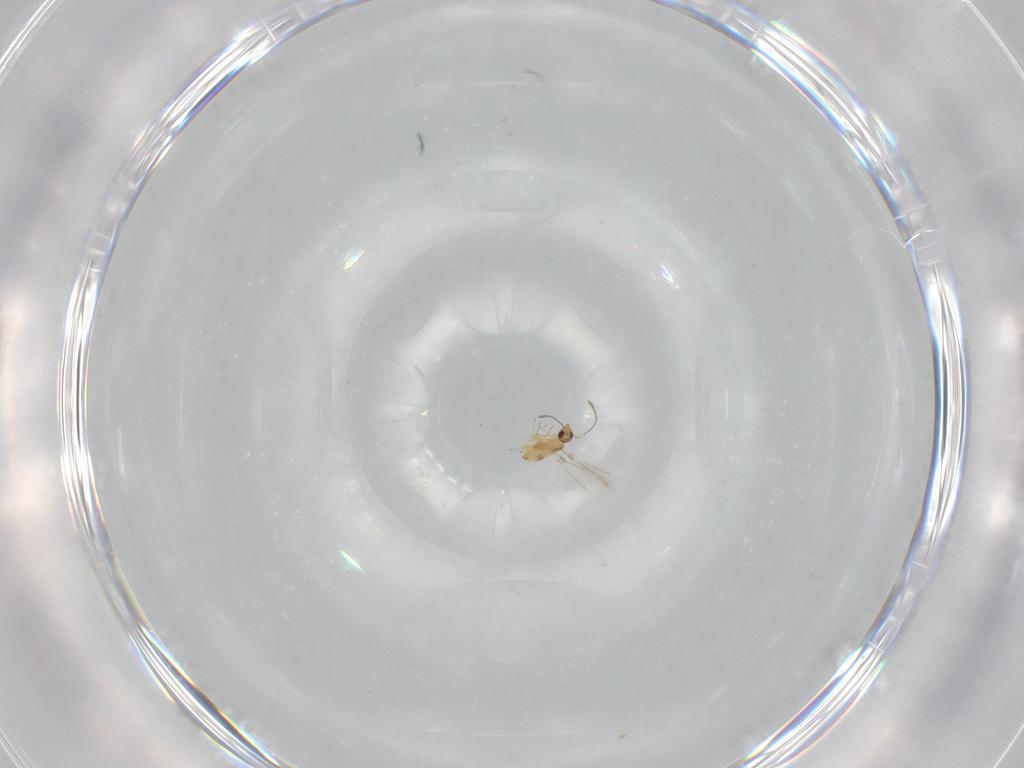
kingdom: Animalia
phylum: Arthropoda
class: Insecta
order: Hymenoptera
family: Mymaridae
